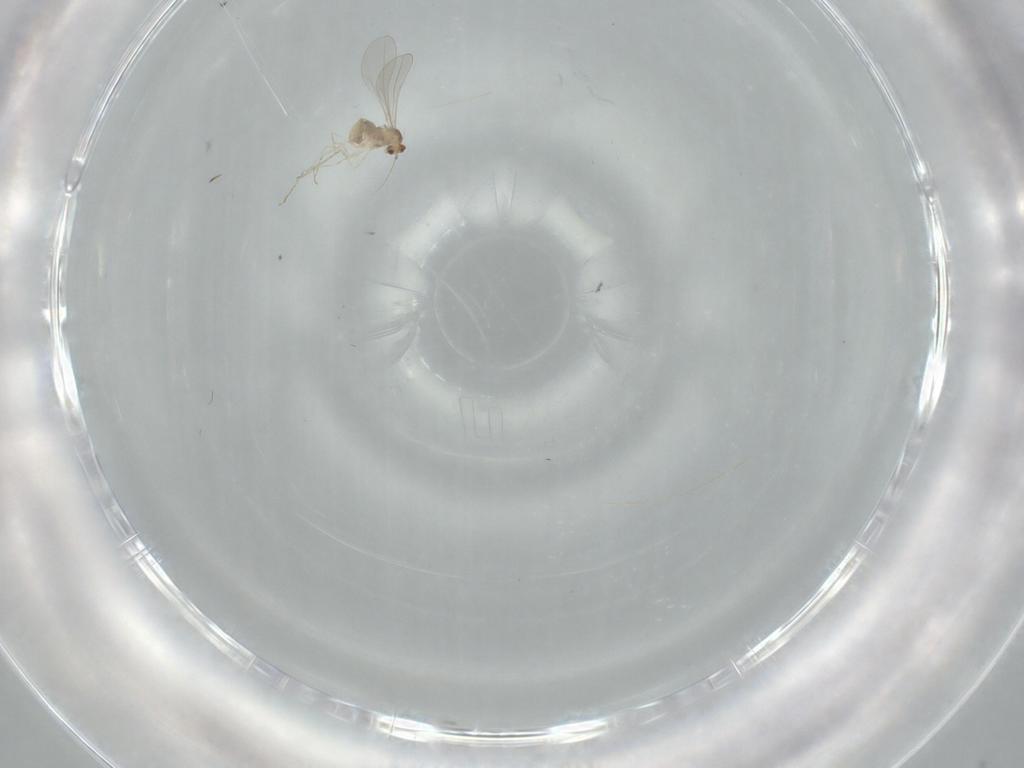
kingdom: Animalia
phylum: Arthropoda
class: Insecta
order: Diptera
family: Cecidomyiidae
